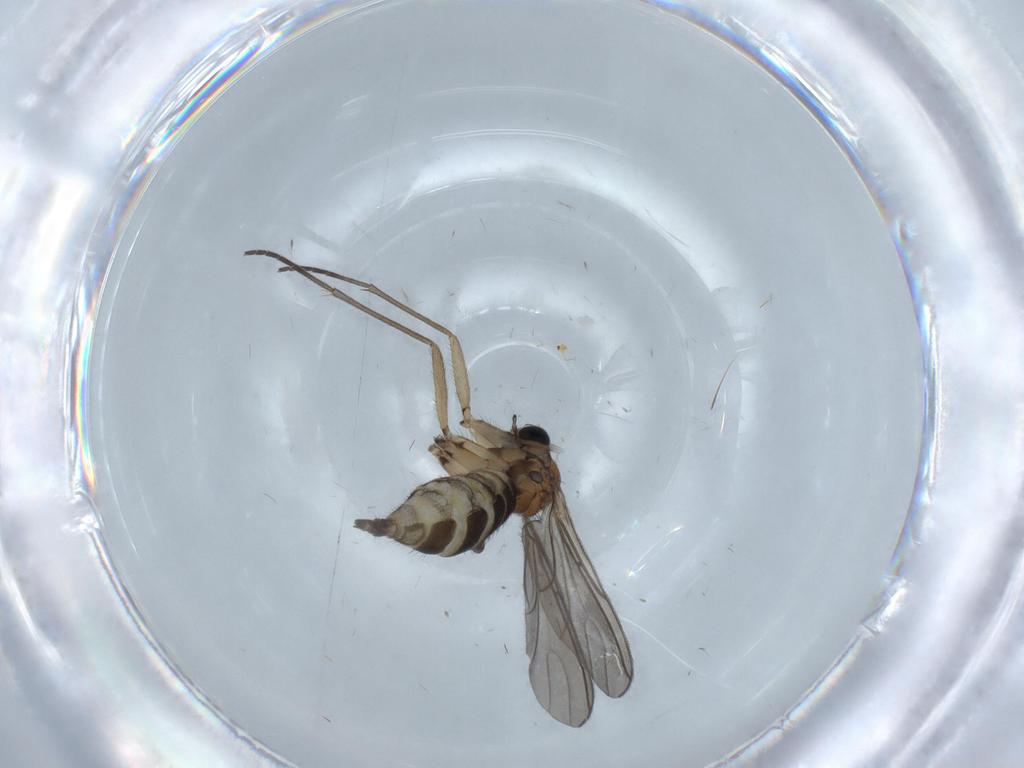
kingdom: Animalia
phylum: Arthropoda
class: Insecta
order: Diptera
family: Sciaridae
